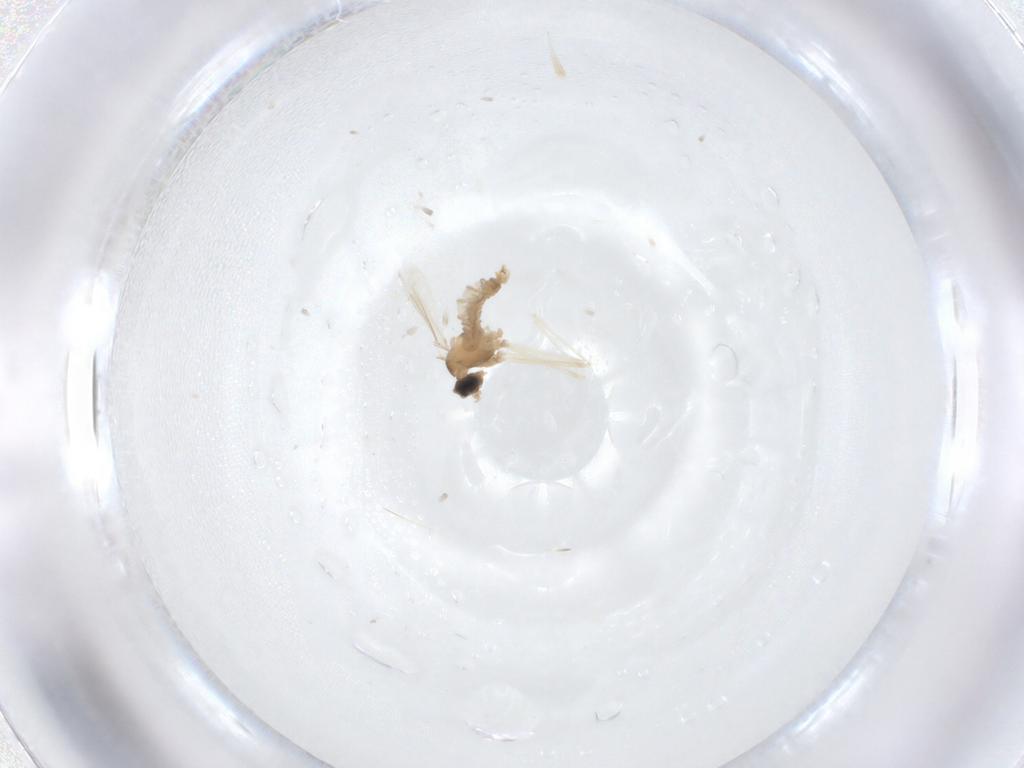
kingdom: Animalia
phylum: Arthropoda
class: Insecta
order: Diptera
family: Cecidomyiidae
